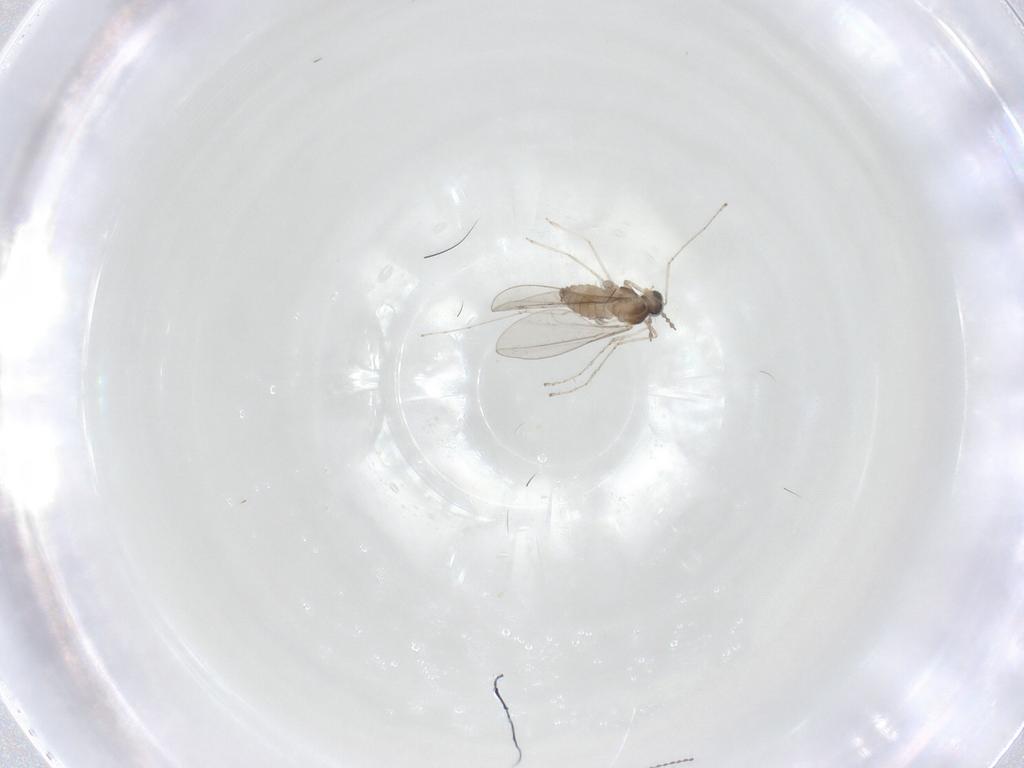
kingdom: Animalia
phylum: Arthropoda
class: Insecta
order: Diptera
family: Cecidomyiidae
